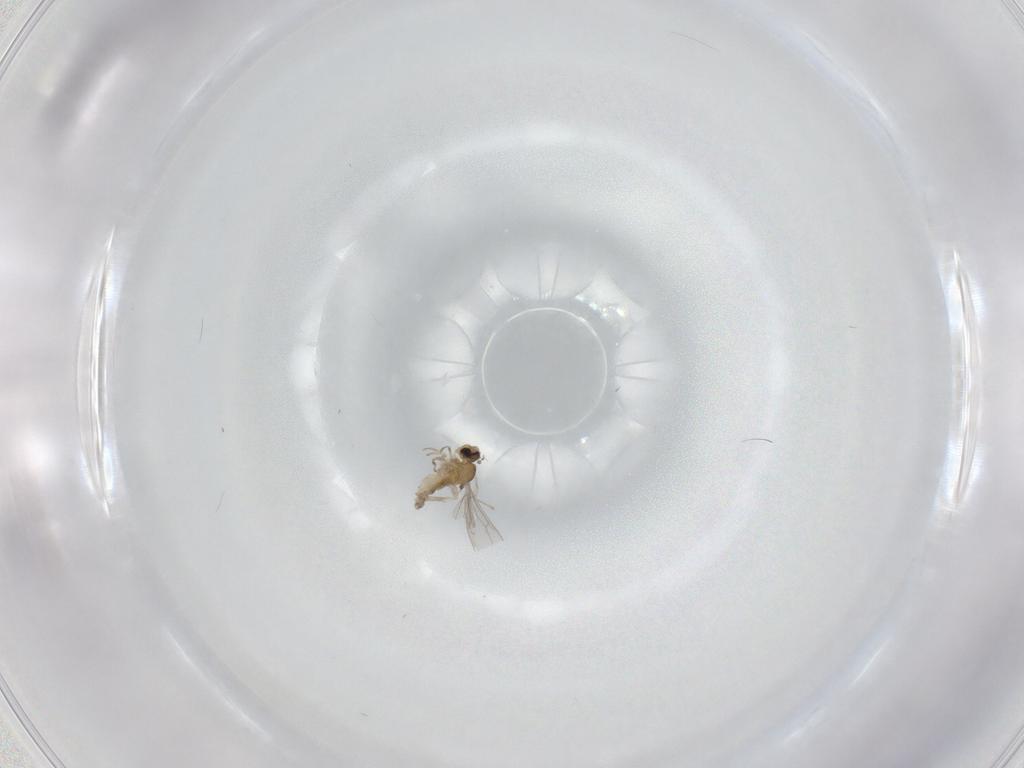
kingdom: Animalia
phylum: Arthropoda
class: Insecta
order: Diptera
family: Cecidomyiidae
